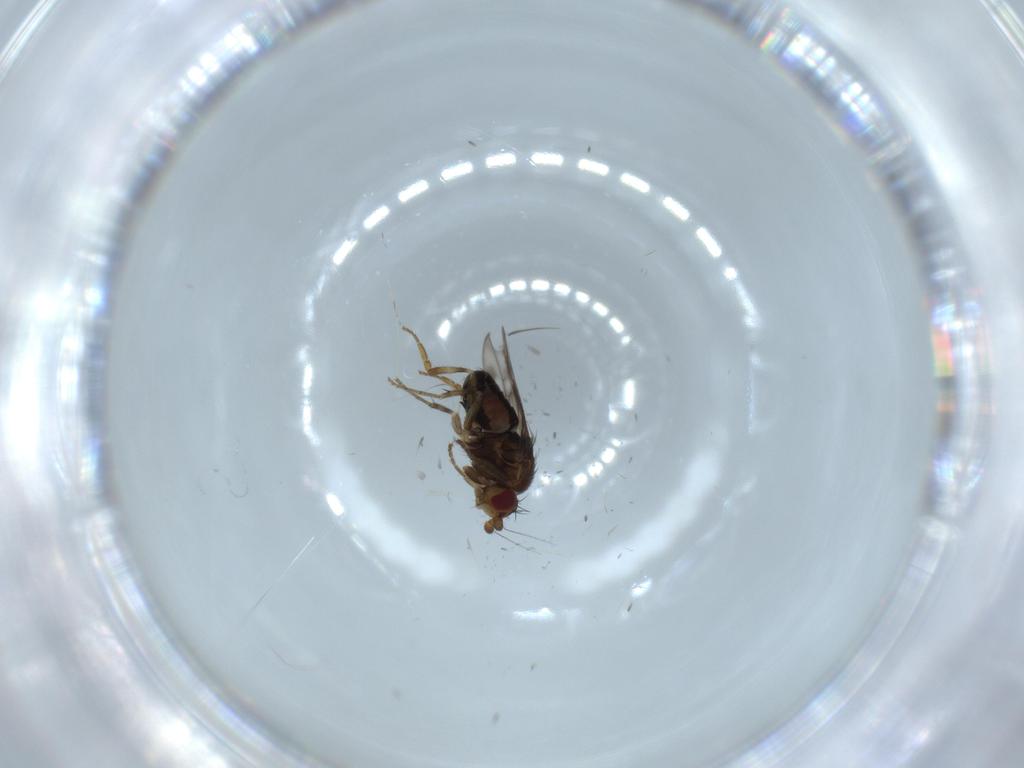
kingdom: Animalia
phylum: Arthropoda
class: Insecta
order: Diptera
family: Sphaeroceridae
